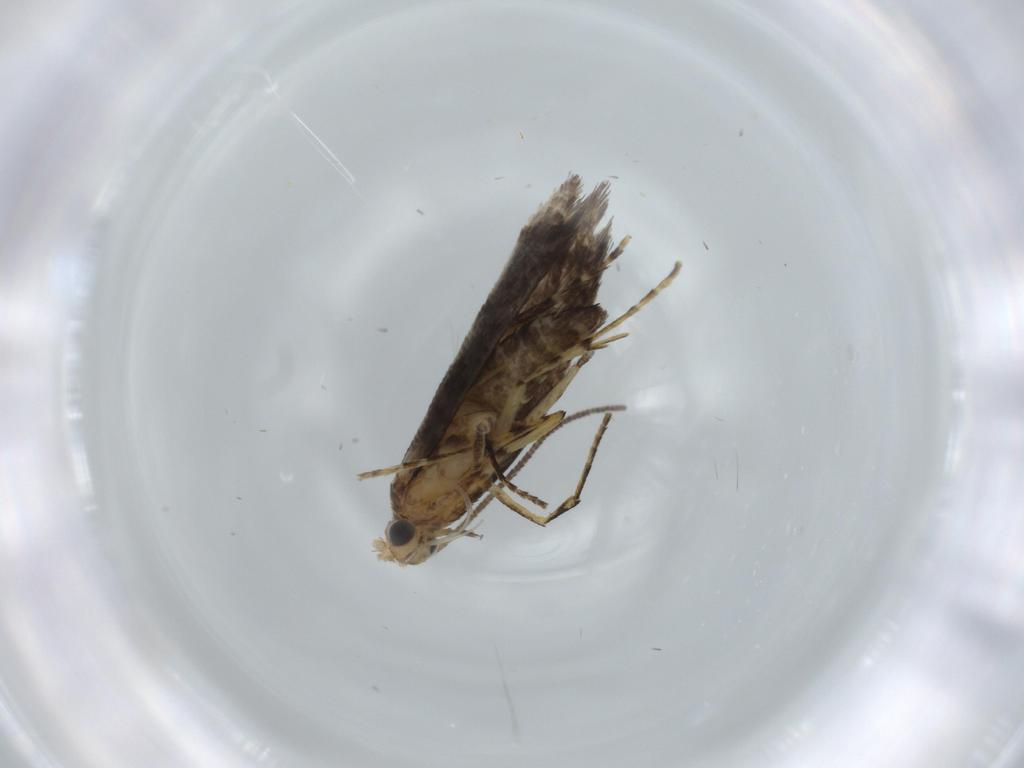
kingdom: Animalia
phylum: Arthropoda
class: Insecta
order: Lepidoptera
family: Argyresthiidae
